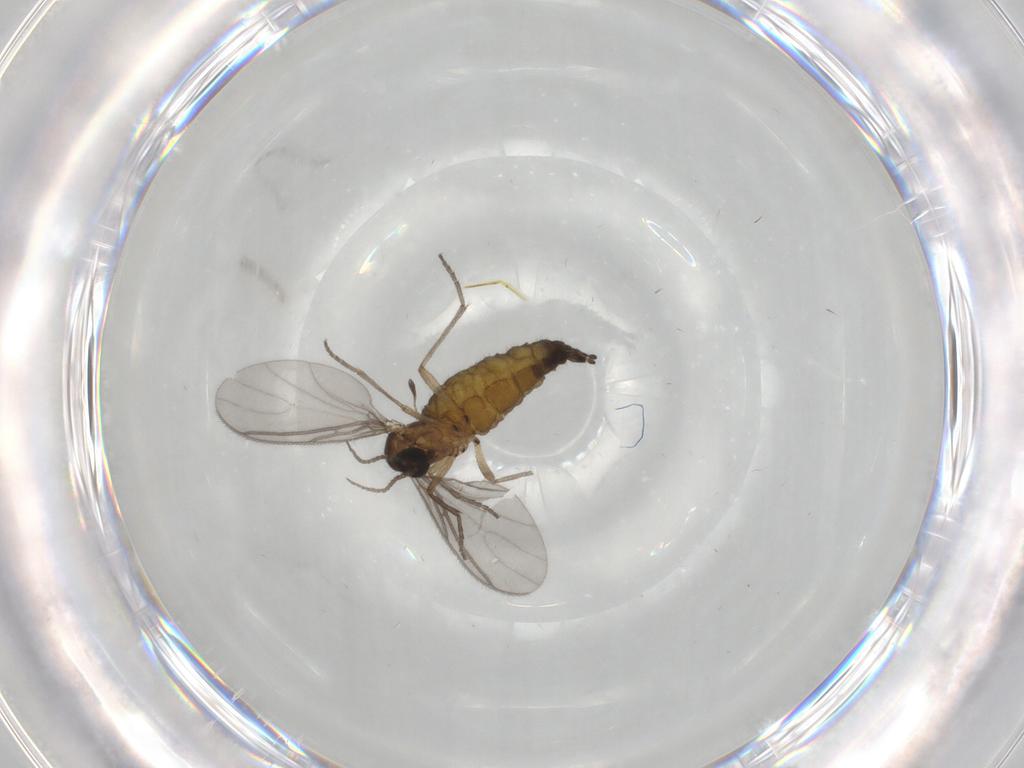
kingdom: Animalia
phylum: Arthropoda
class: Insecta
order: Diptera
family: Sciaridae
